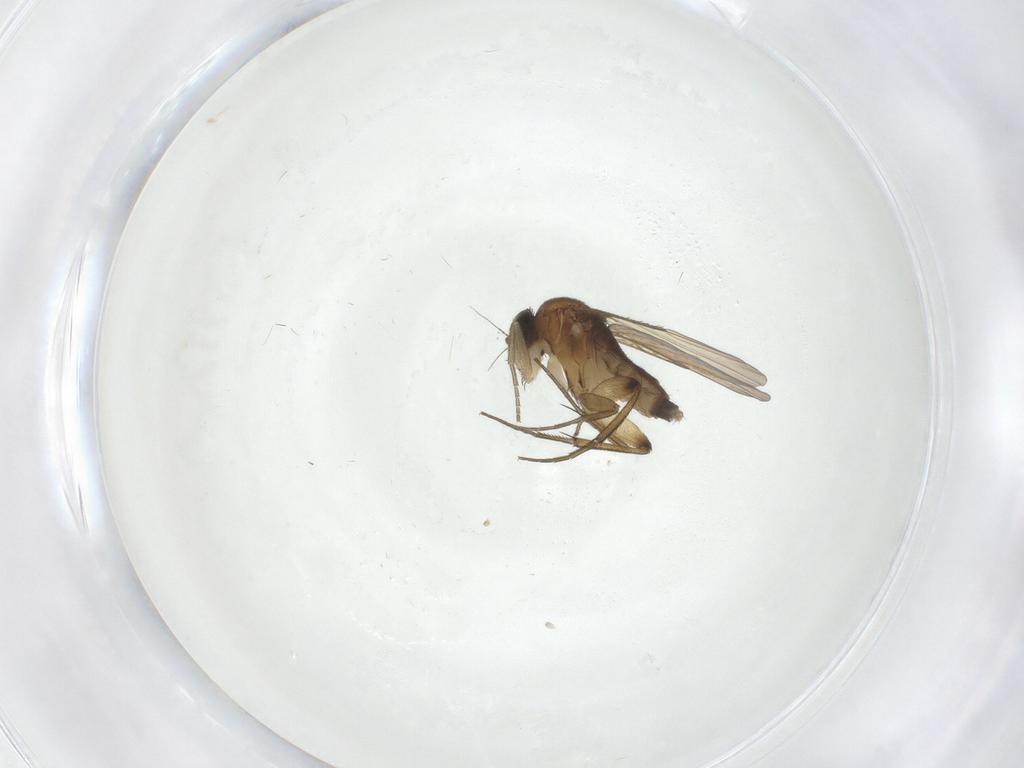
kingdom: Animalia
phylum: Arthropoda
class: Insecta
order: Diptera
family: Phoridae
